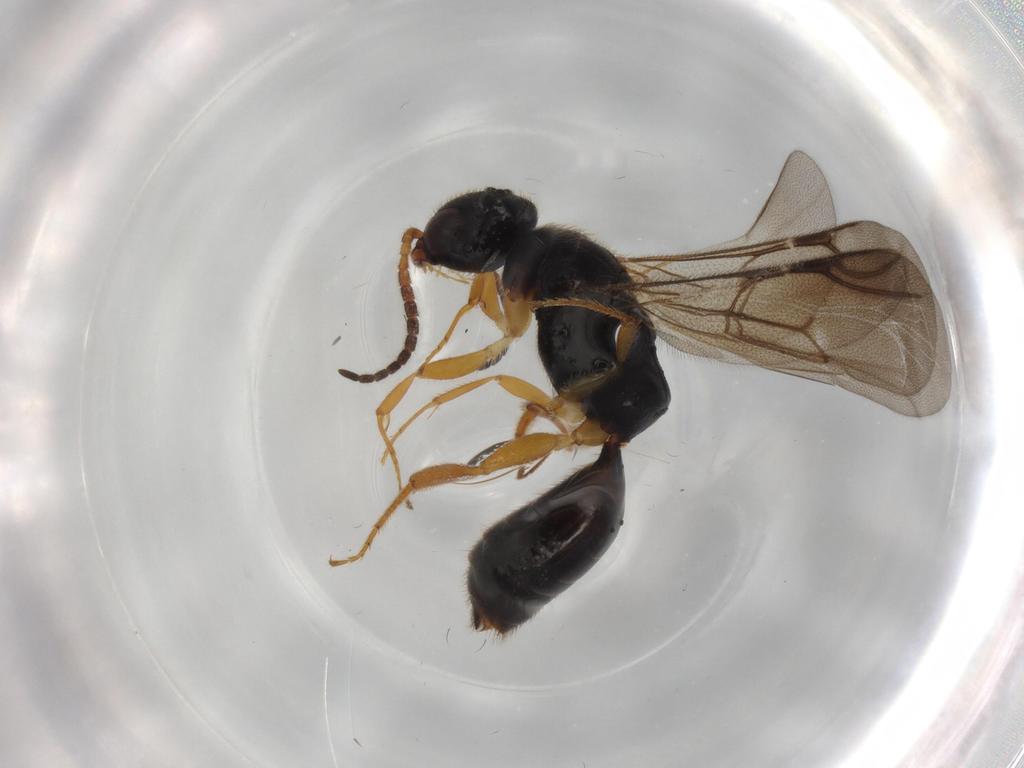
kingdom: Animalia
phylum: Arthropoda
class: Insecta
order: Hymenoptera
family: Bethylidae
